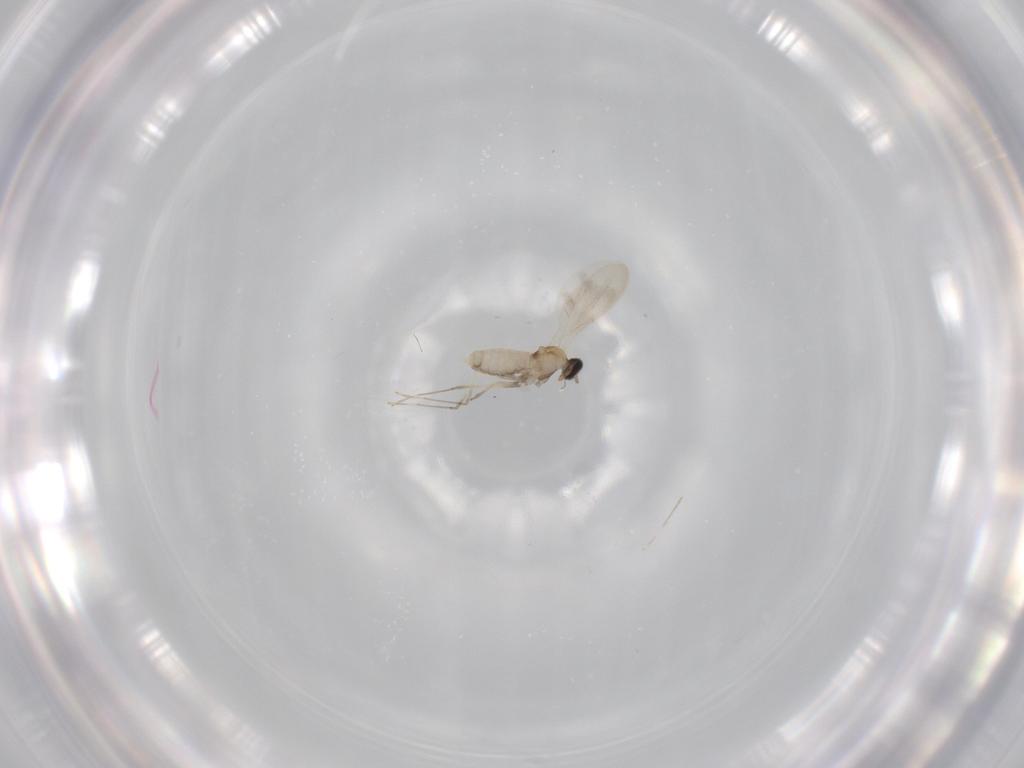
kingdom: Animalia
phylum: Arthropoda
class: Insecta
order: Diptera
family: Cecidomyiidae
